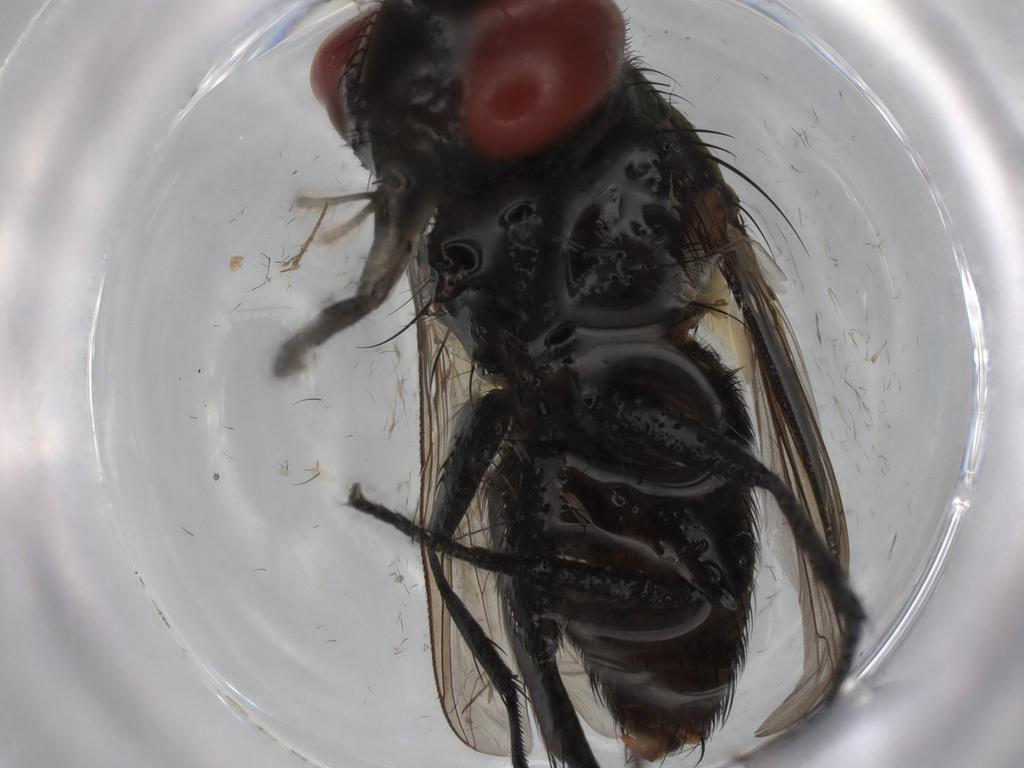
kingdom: Animalia
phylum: Arthropoda
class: Insecta
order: Diptera
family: Sarcophagidae
